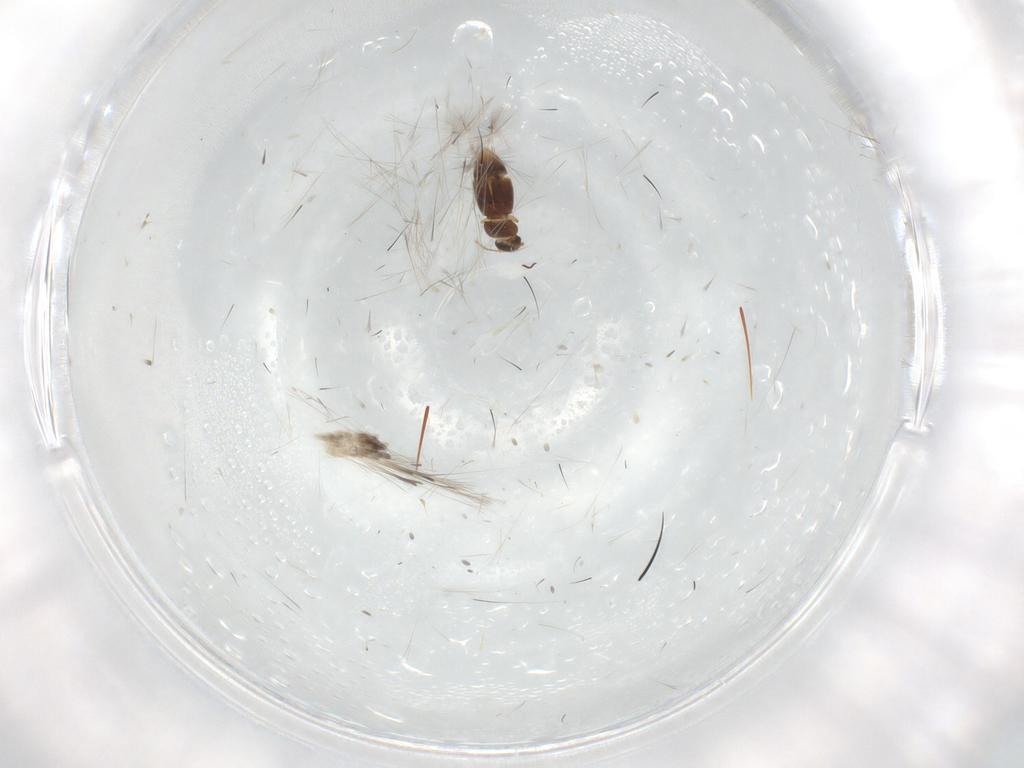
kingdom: Animalia
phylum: Arthropoda
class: Insecta
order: Coleoptera
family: Ptiliidae
